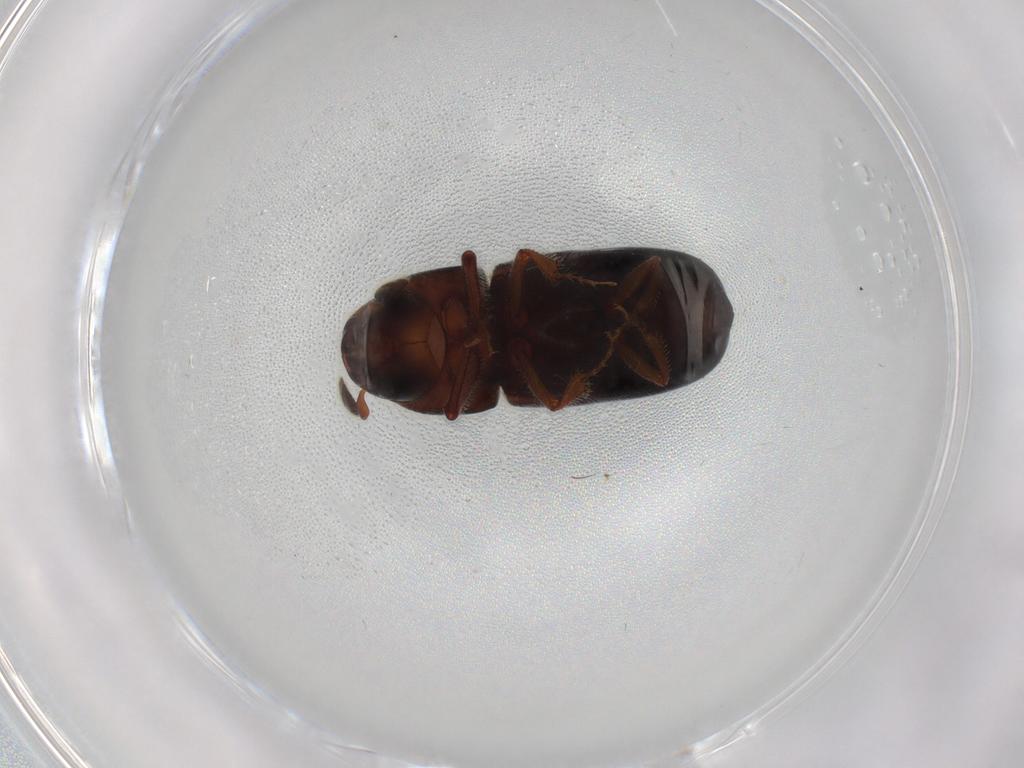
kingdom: Animalia
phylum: Arthropoda
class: Insecta
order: Coleoptera
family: Curculionidae
